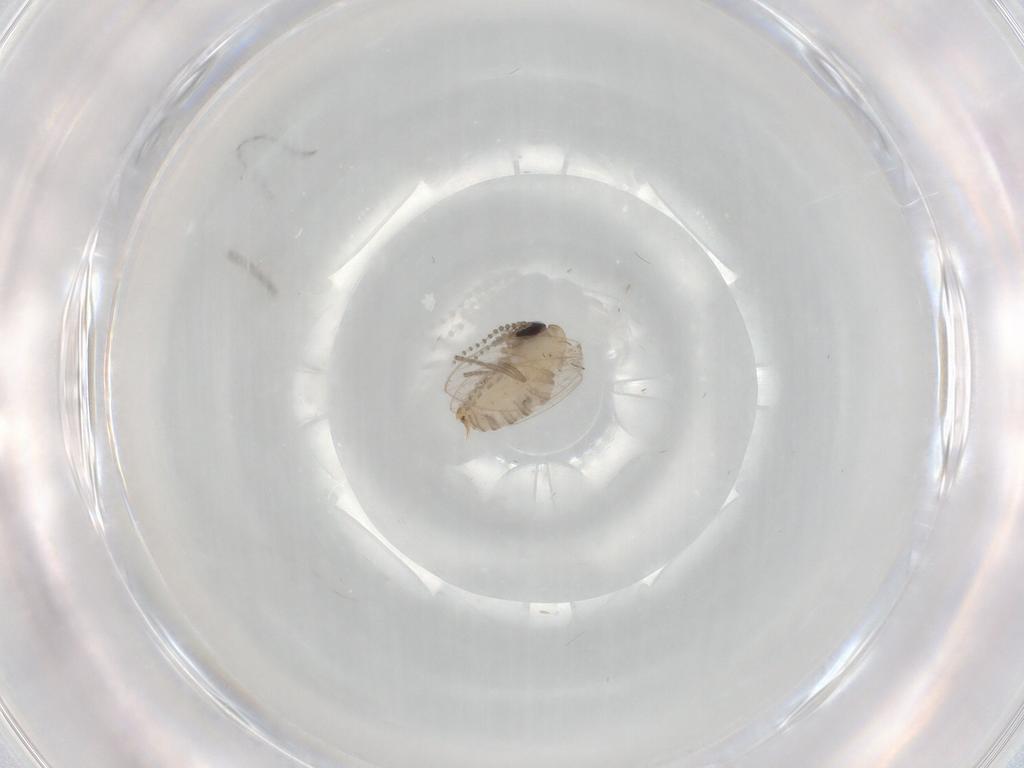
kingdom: Animalia
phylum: Arthropoda
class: Insecta
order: Diptera
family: Psychodidae
